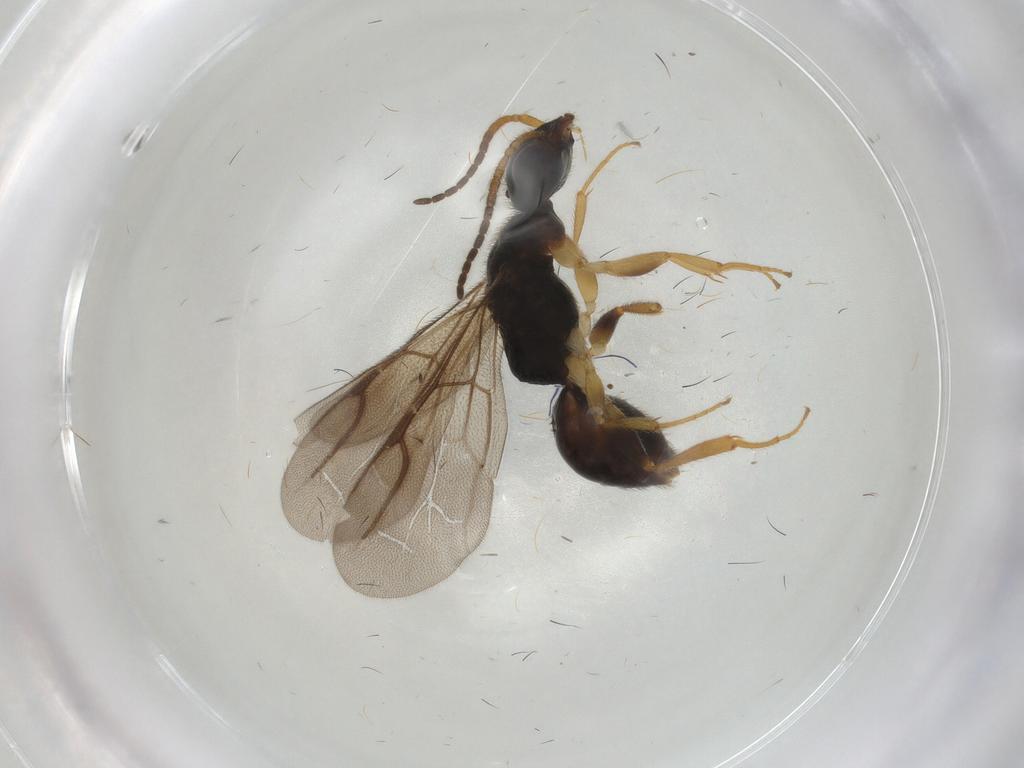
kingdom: Animalia
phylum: Arthropoda
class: Insecta
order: Hymenoptera
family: Bethylidae
